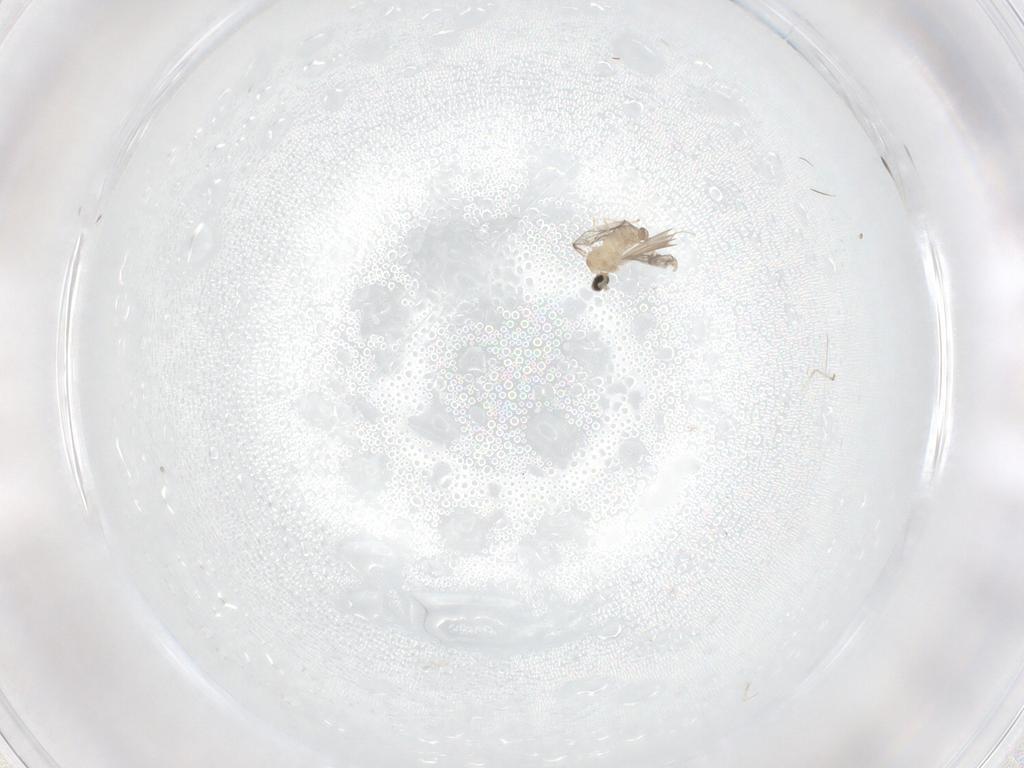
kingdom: Animalia
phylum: Arthropoda
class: Insecta
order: Diptera
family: Cecidomyiidae
